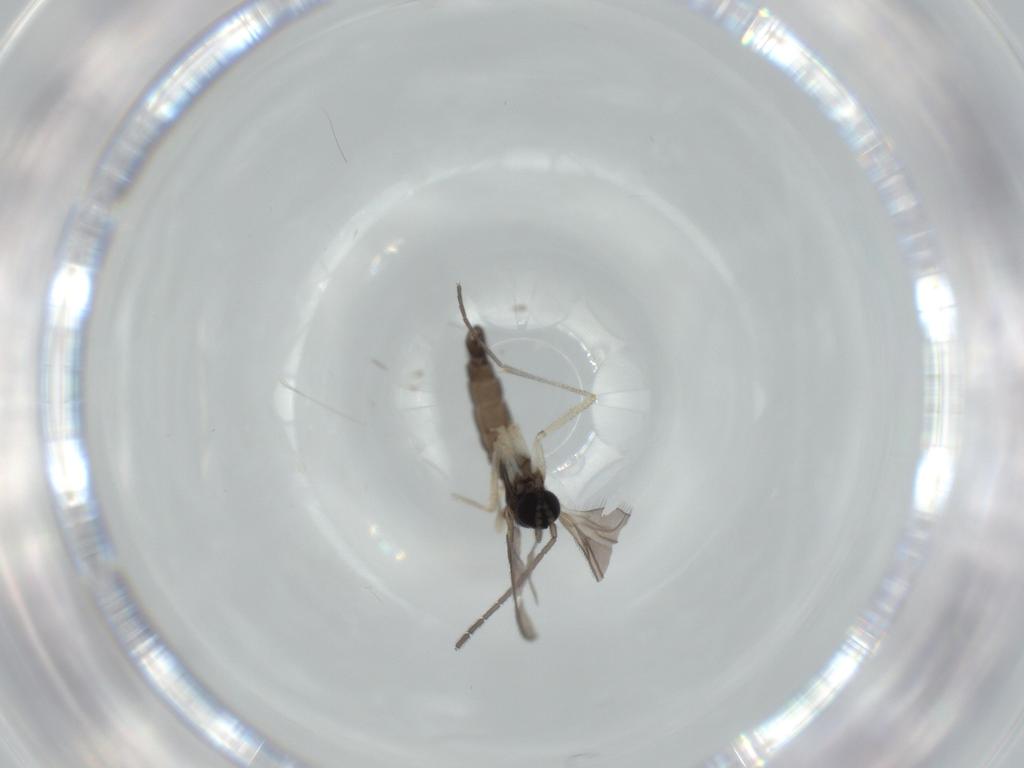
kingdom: Animalia
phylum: Arthropoda
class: Insecta
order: Diptera
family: Sciaridae
